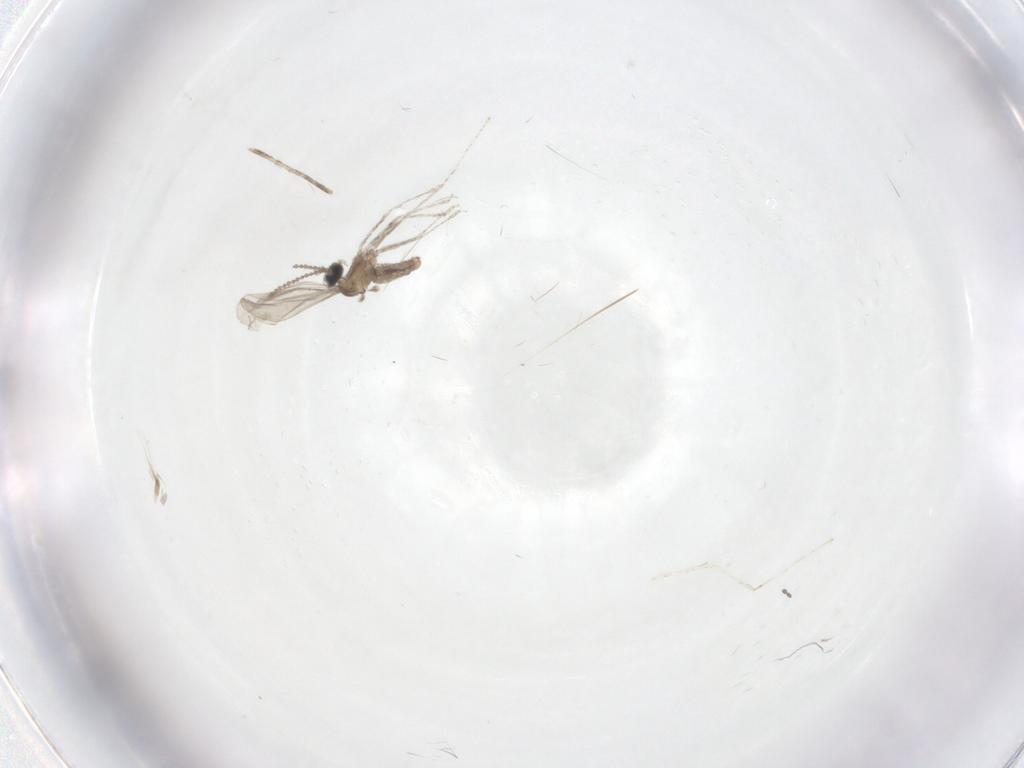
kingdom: Animalia
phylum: Arthropoda
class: Insecta
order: Diptera
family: Cecidomyiidae
